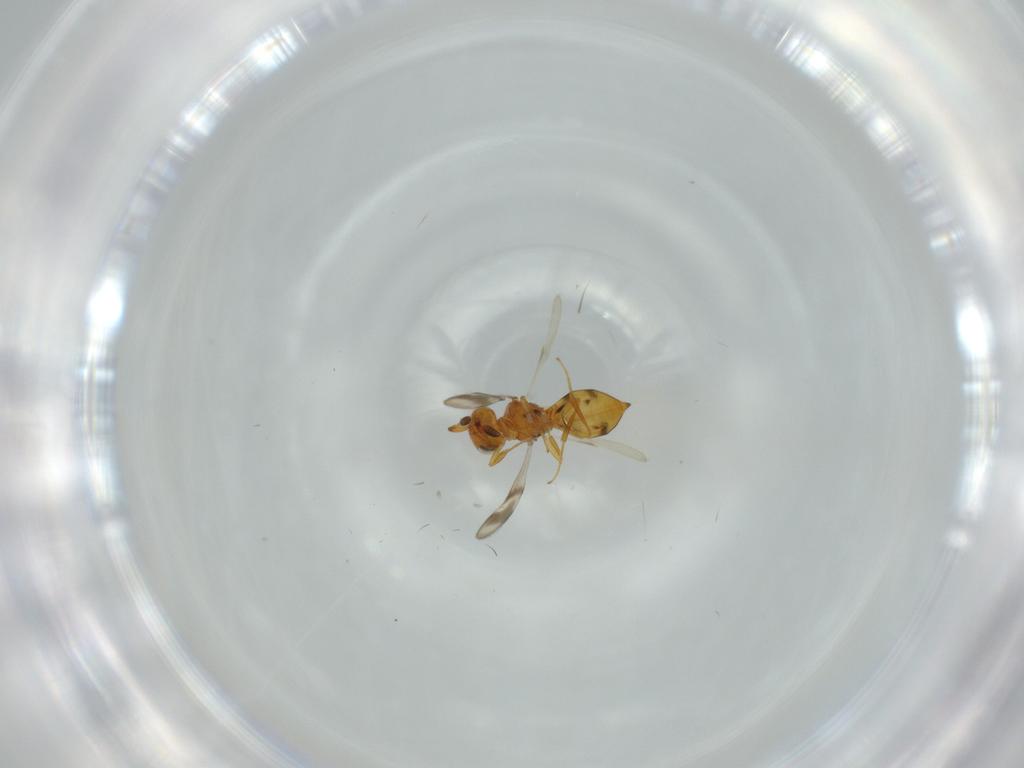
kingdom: Animalia
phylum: Arthropoda
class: Insecta
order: Hymenoptera
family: Scelionidae
